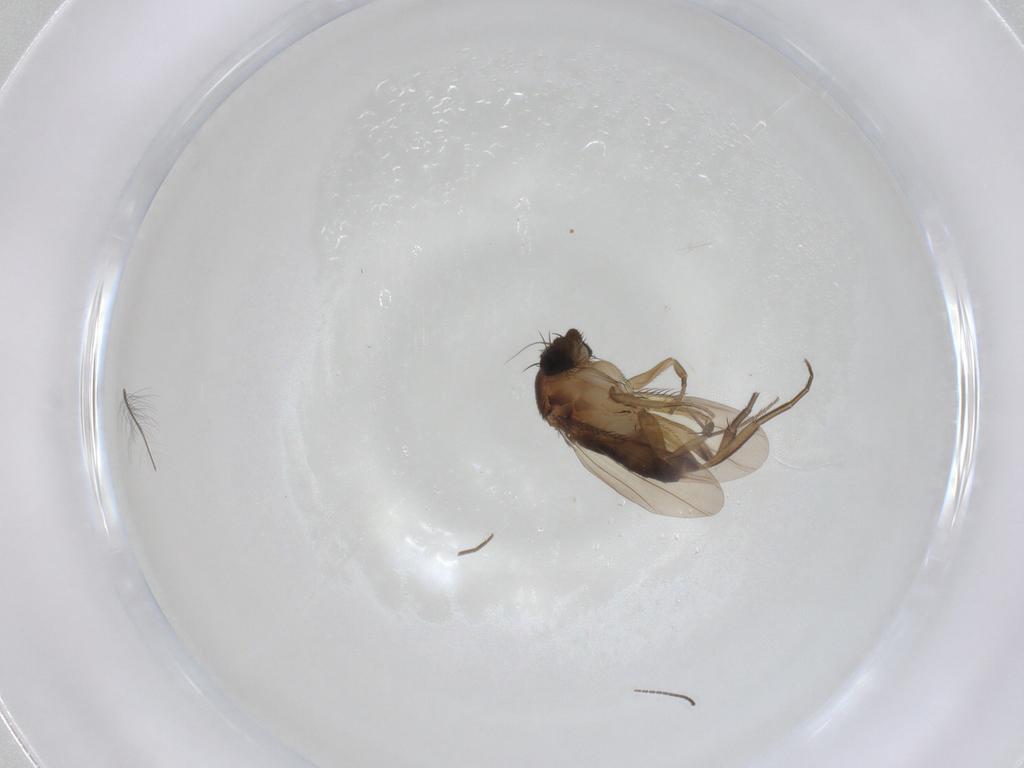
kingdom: Animalia
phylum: Arthropoda
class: Insecta
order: Diptera
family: Phoridae
